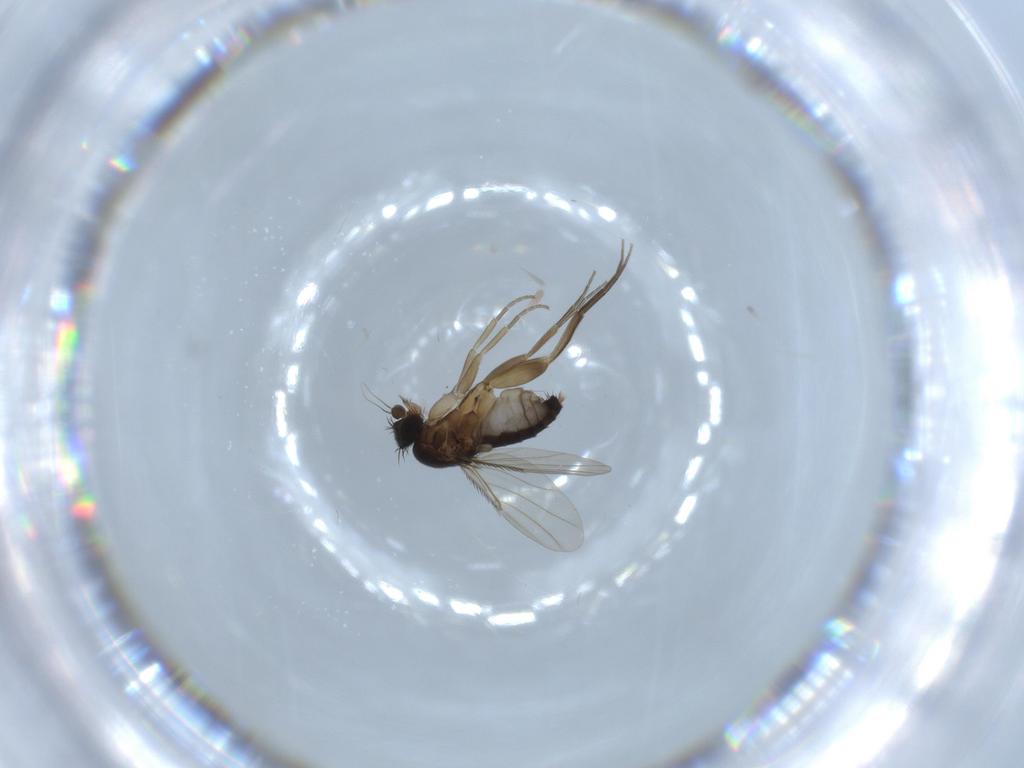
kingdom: Animalia
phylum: Arthropoda
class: Insecta
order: Diptera
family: Phoridae
